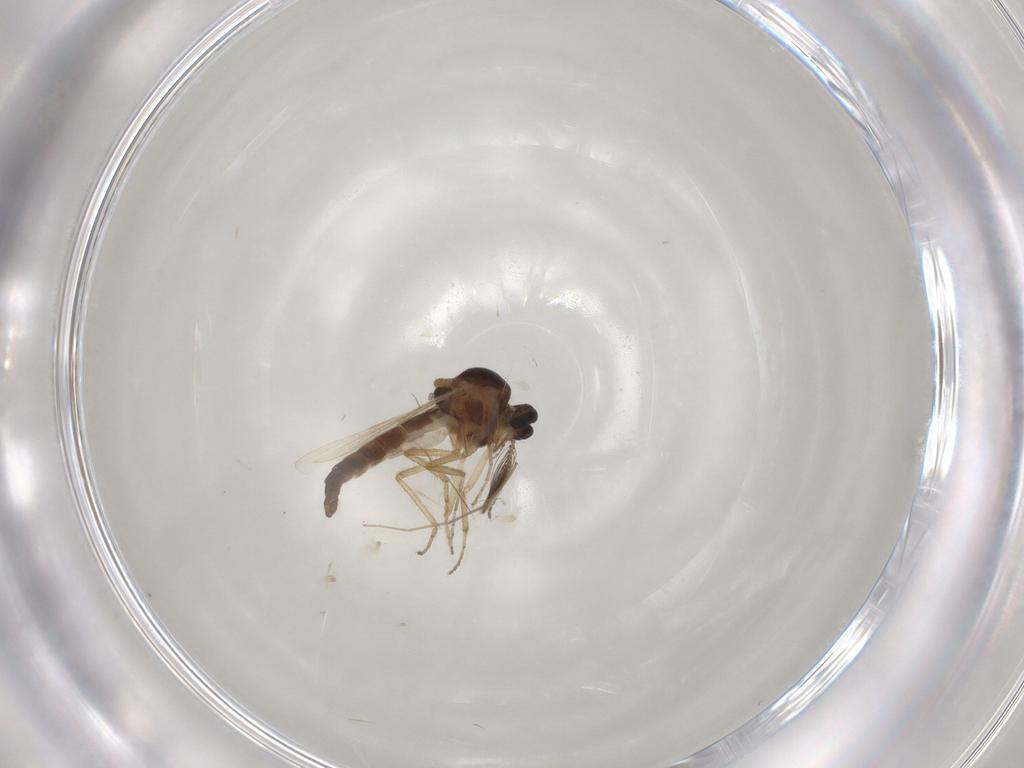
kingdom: Animalia
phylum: Arthropoda
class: Insecta
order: Diptera
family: Ceratopogonidae
